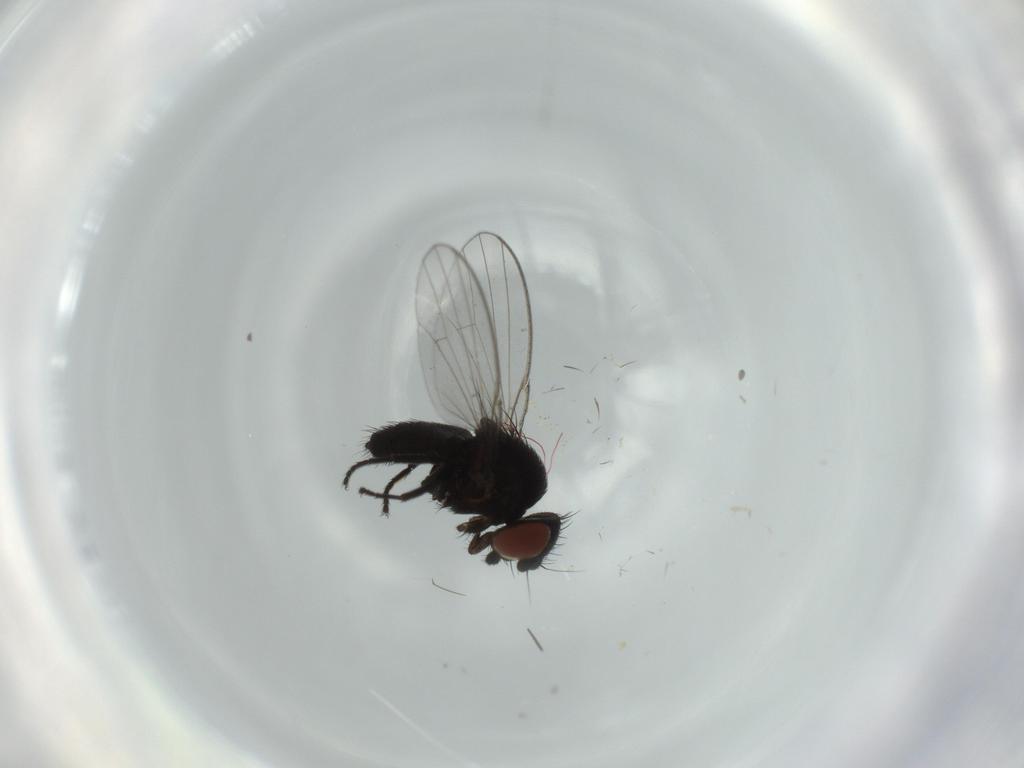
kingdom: Animalia
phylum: Arthropoda
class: Insecta
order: Diptera
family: Milichiidae
